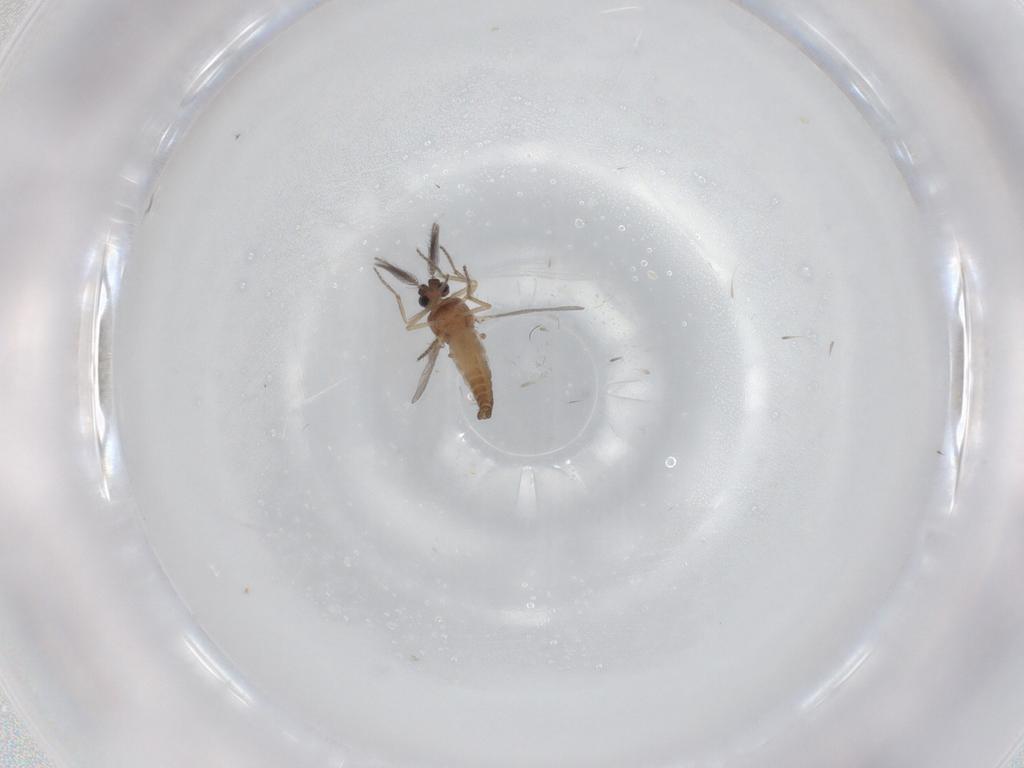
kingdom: Animalia
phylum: Arthropoda
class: Insecta
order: Diptera
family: Ceratopogonidae
